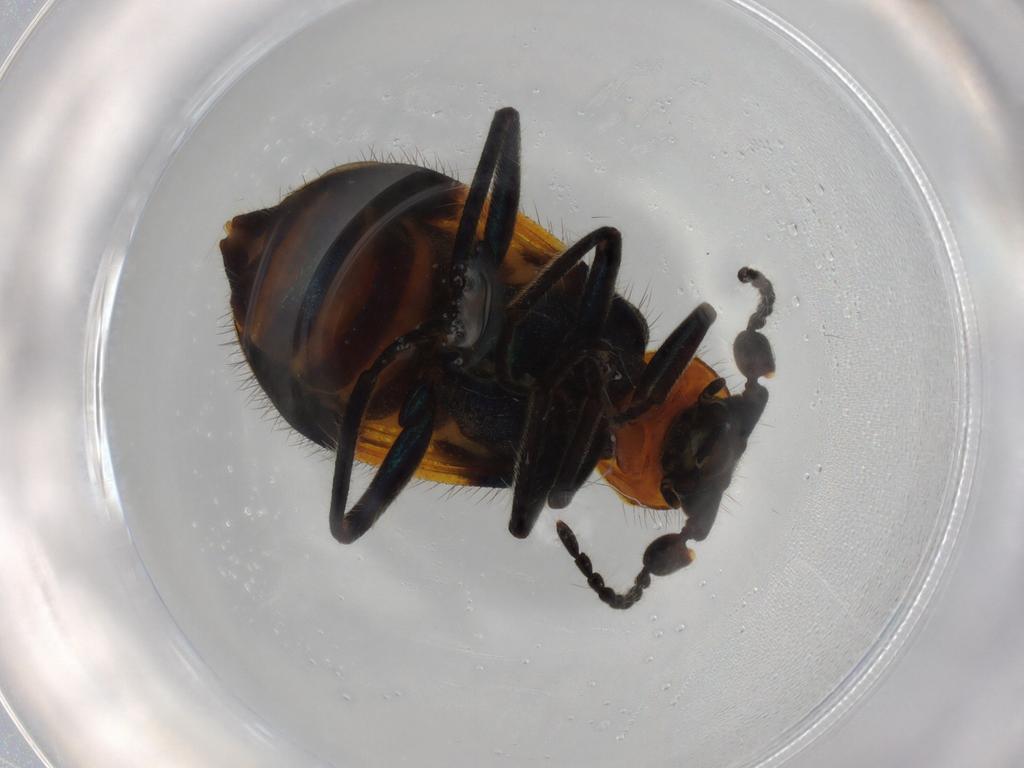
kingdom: Animalia
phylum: Arthropoda
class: Insecta
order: Coleoptera
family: Melyridae
